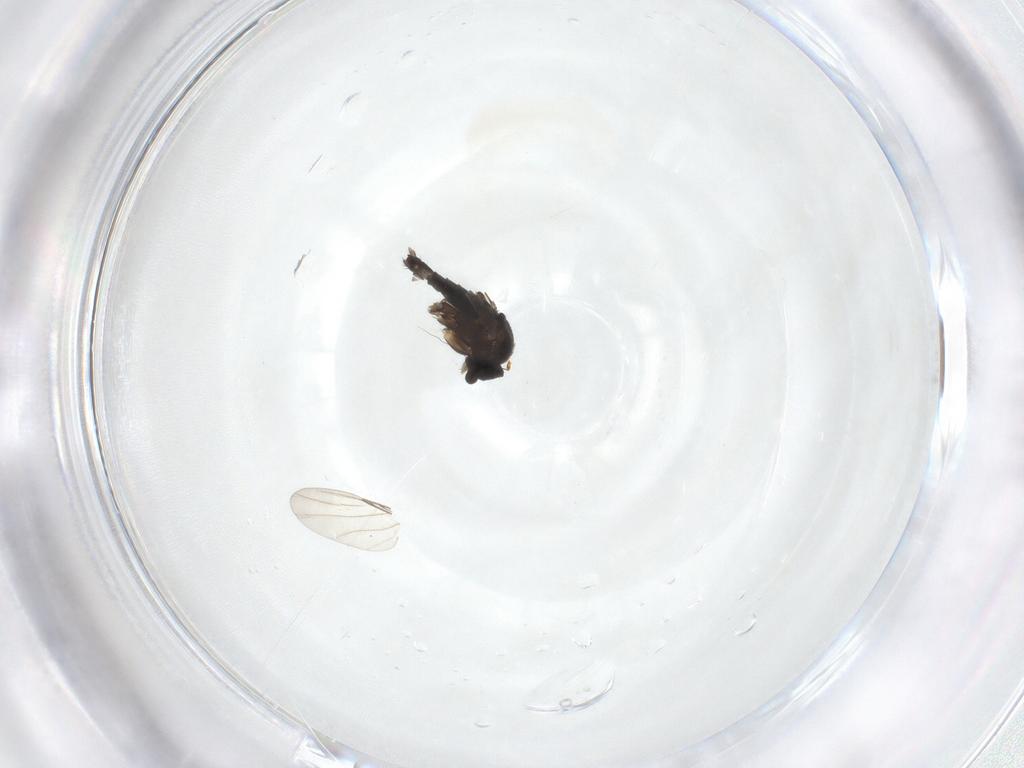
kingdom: Animalia
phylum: Arthropoda
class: Insecta
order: Diptera
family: Phoridae
